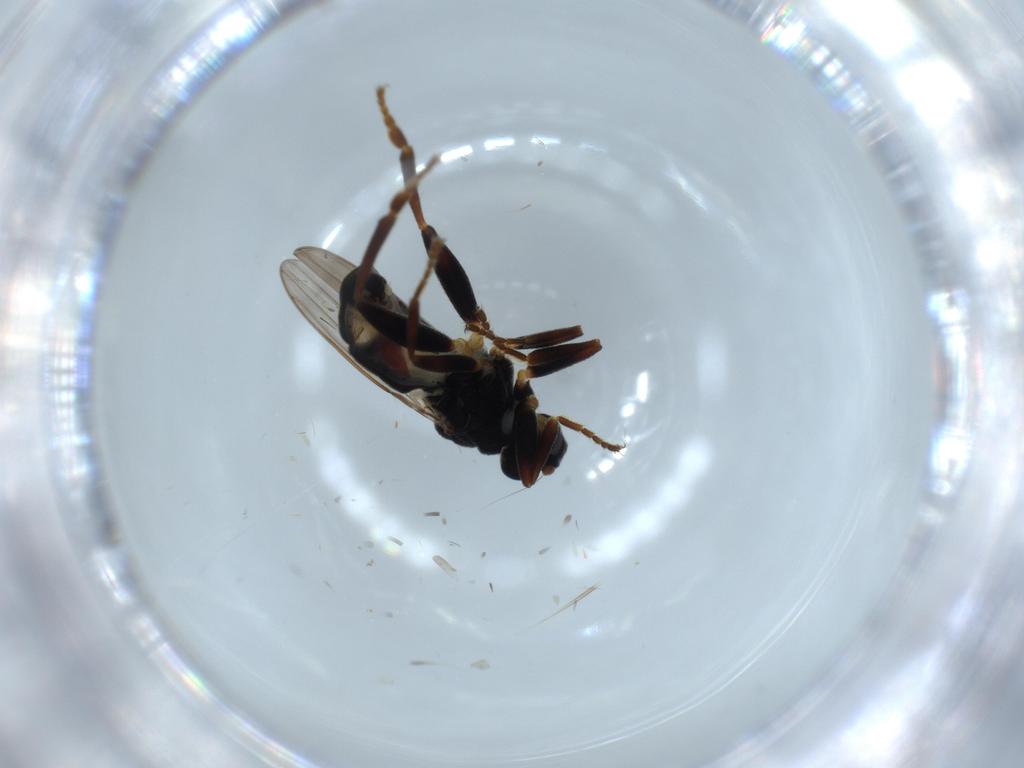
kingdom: Animalia
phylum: Arthropoda
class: Insecta
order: Diptera
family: Sphaeroceridae
